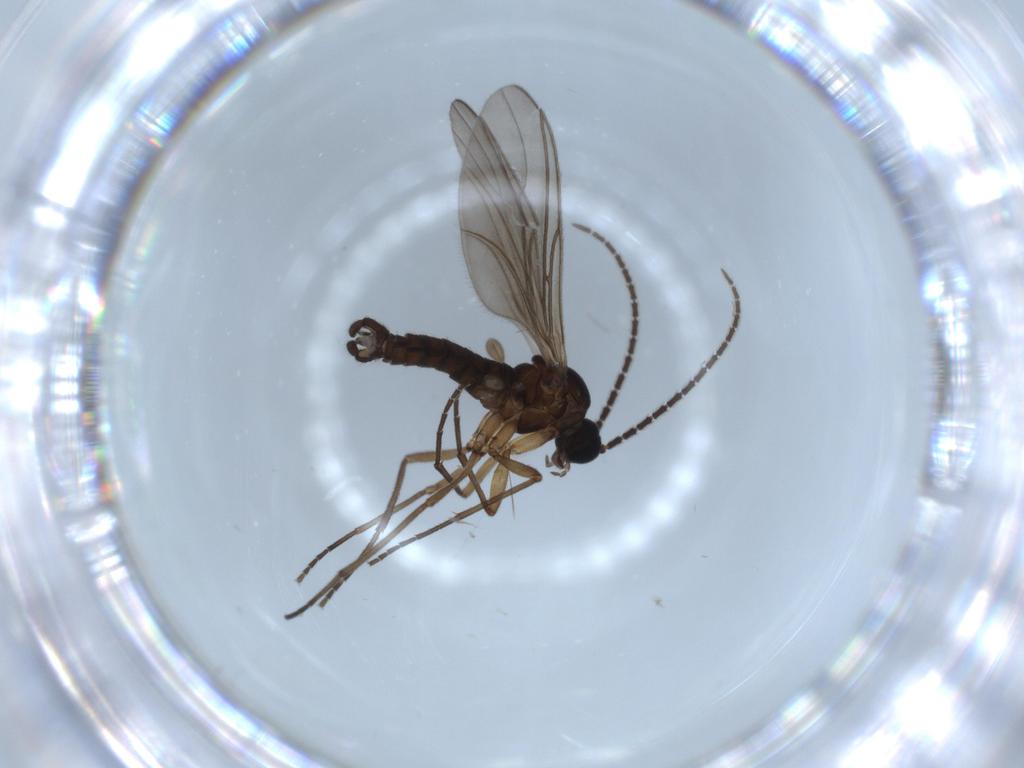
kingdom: Animalia
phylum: Arthropoda
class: Insecta
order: Diptera
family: Sciaridae
